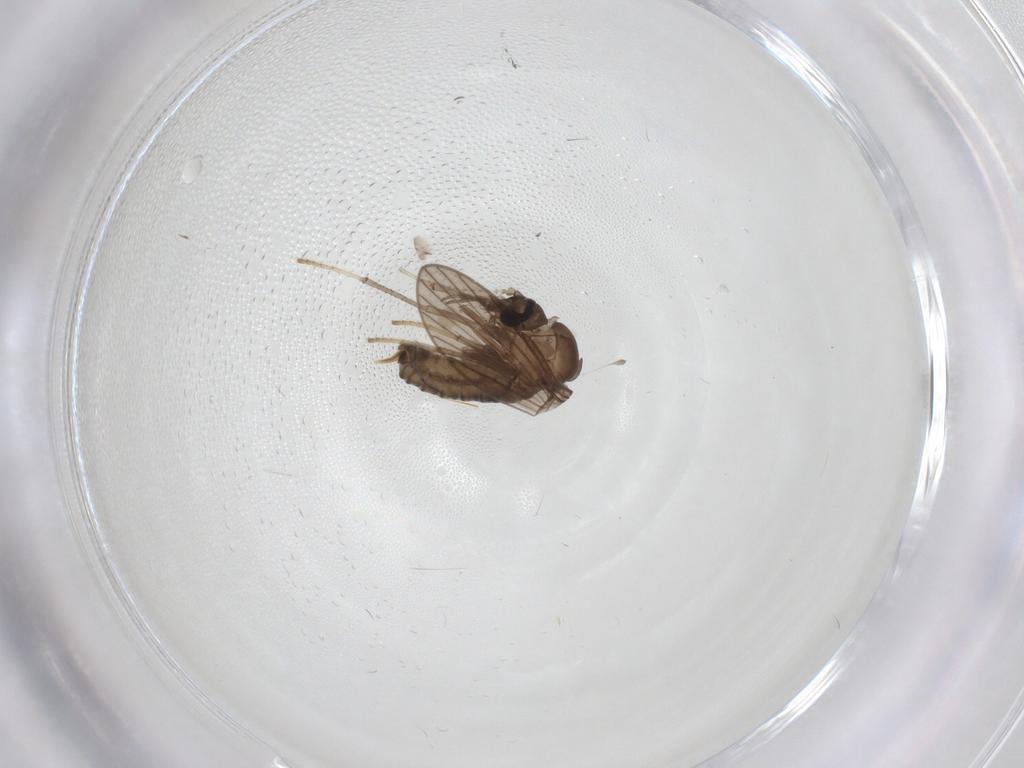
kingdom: Animalia
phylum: Arthropoda
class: Insecta
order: Diptera
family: Psychodidae
